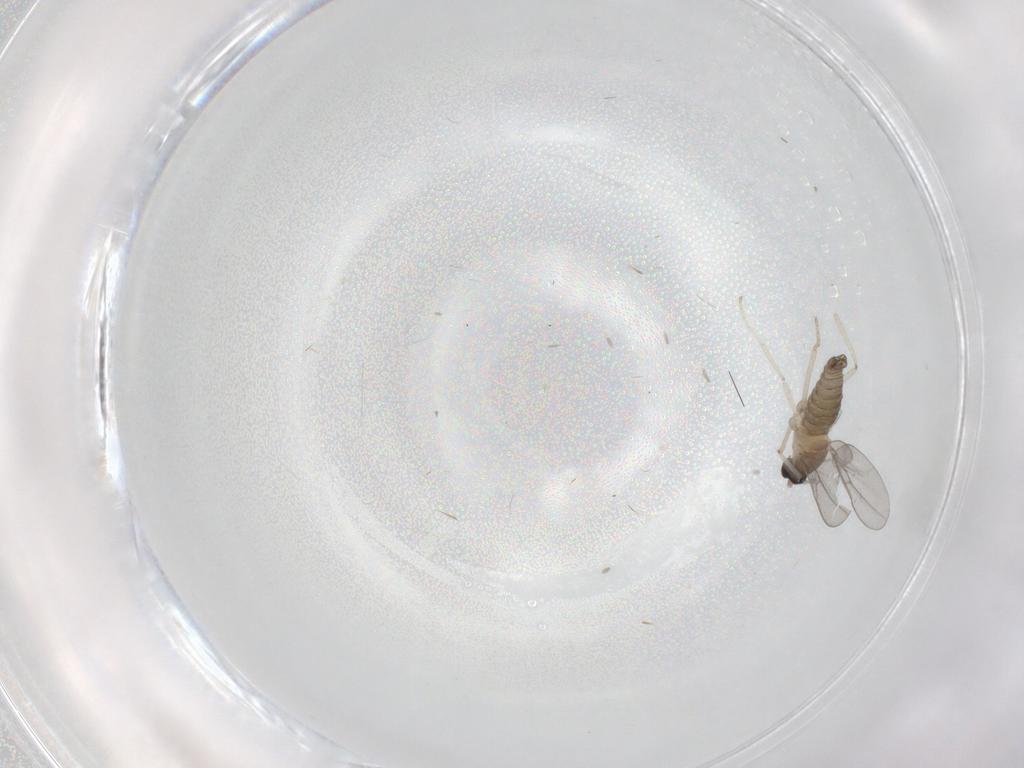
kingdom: Animalia
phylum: Arthropoda
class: Insecta
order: Diptera
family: Cecidomyiidae
